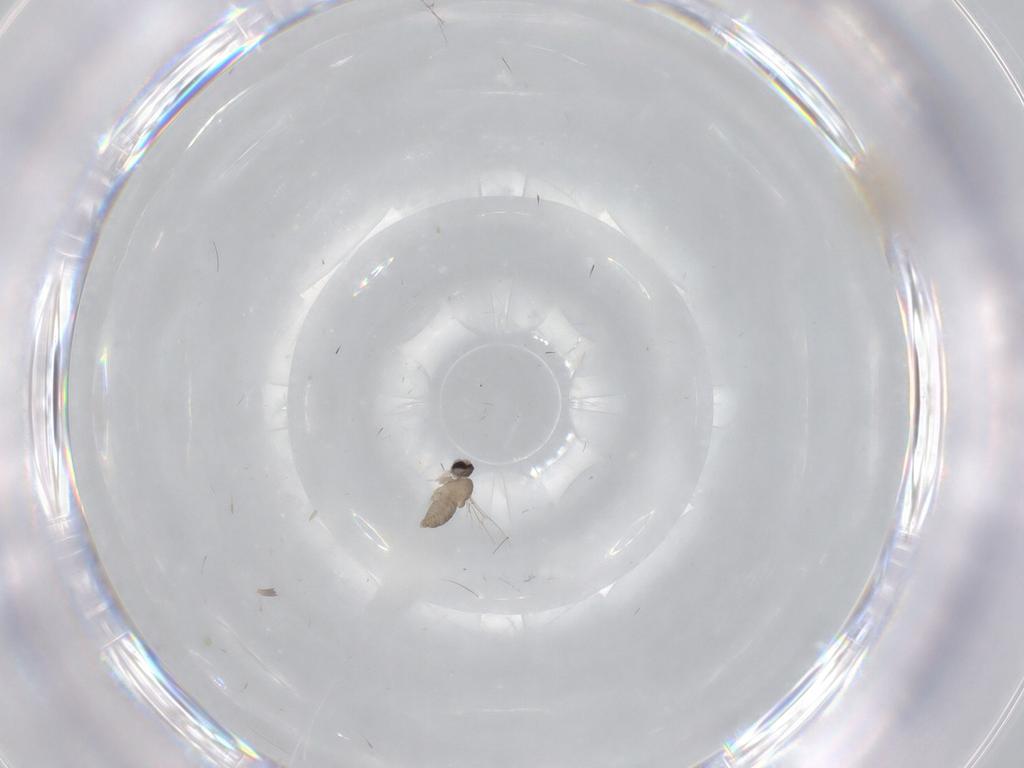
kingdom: Animalia
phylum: Arthropoda
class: Insecta
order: Diptera
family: Cecidomyiidae
